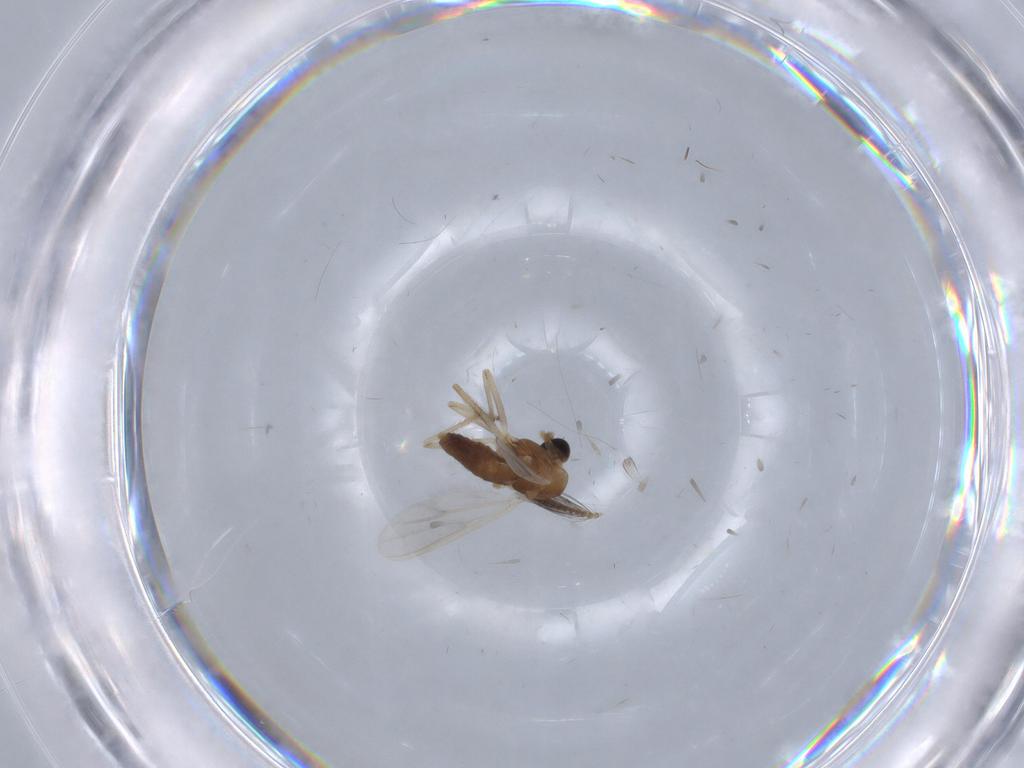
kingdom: Animalia
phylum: Arthropoda
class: Insecta
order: Diptera
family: Chironomidae
